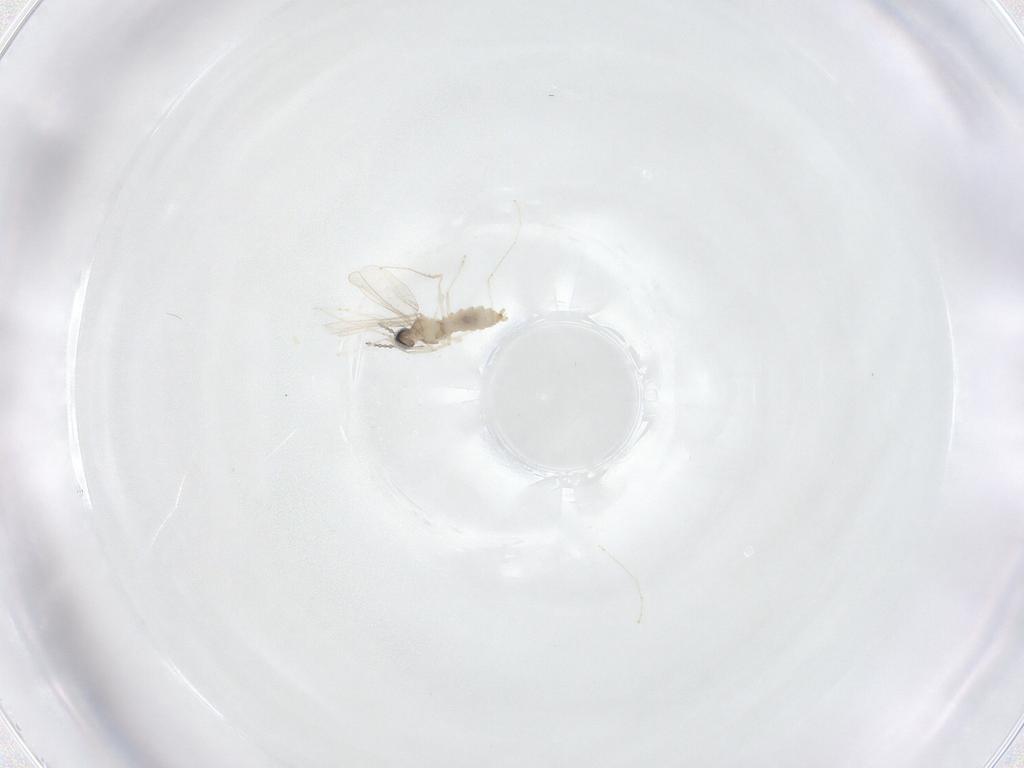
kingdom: Animalia
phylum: Arthropoda
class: Insecta
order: Diptera
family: Cecidomyiidae
